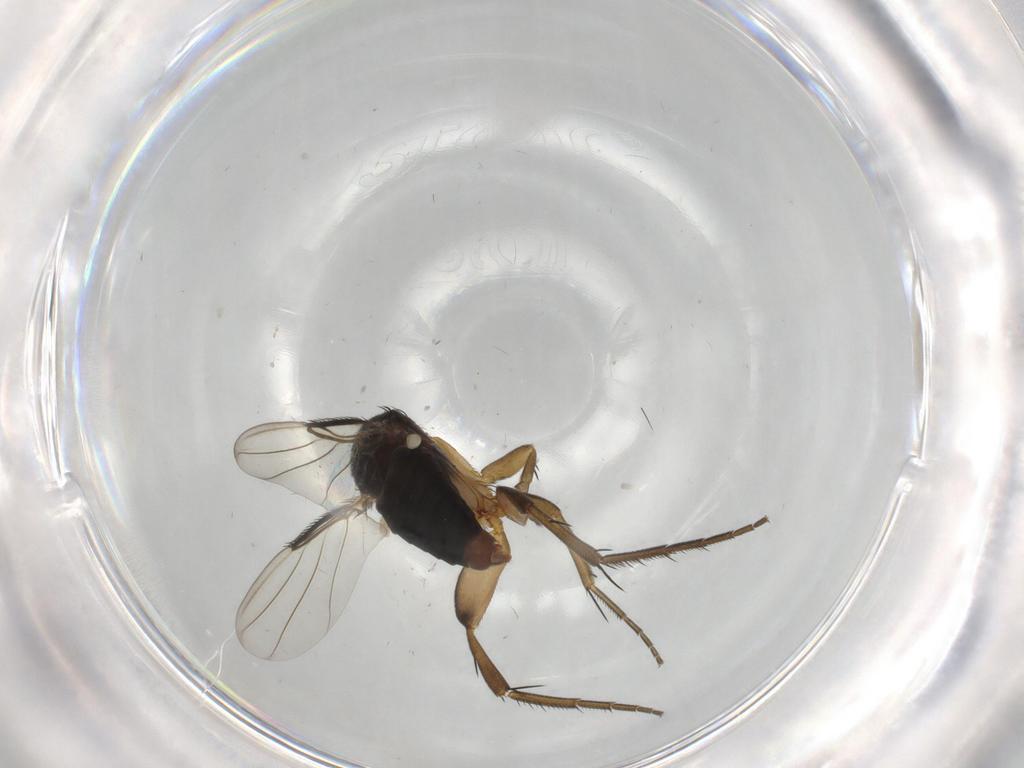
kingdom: Animalia
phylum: Arthropoda
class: Insecta
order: Diptera
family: Phoridae
